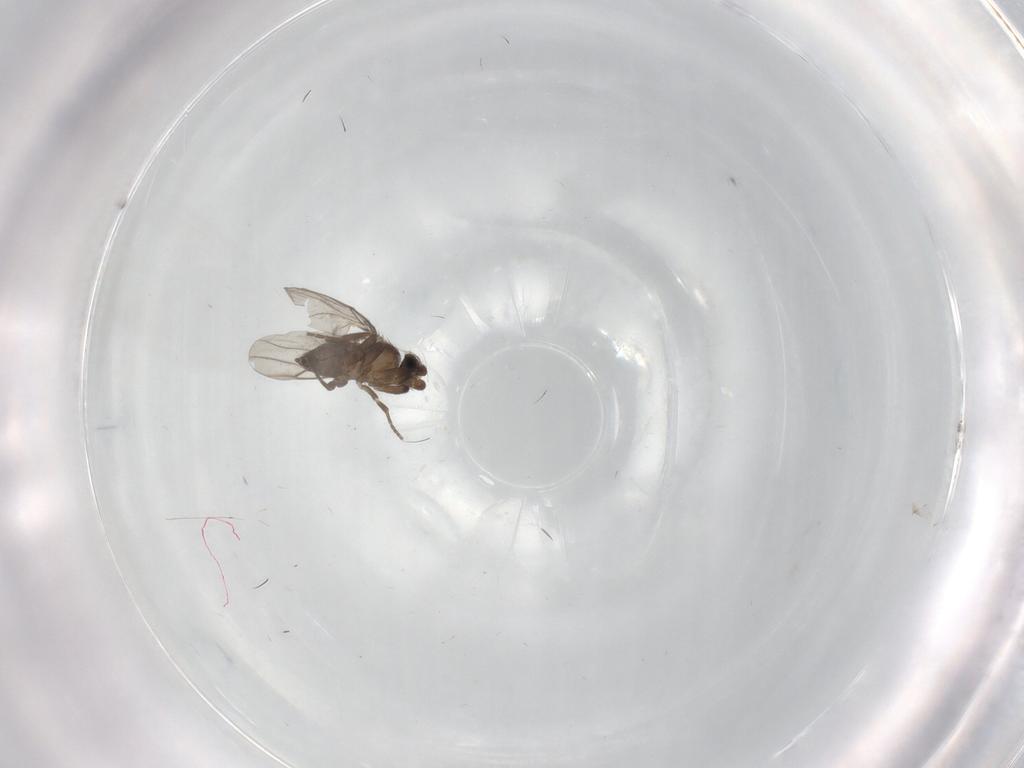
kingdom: Animalia
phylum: Arthropoda
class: Insecta
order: Diptera
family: Phoridae
